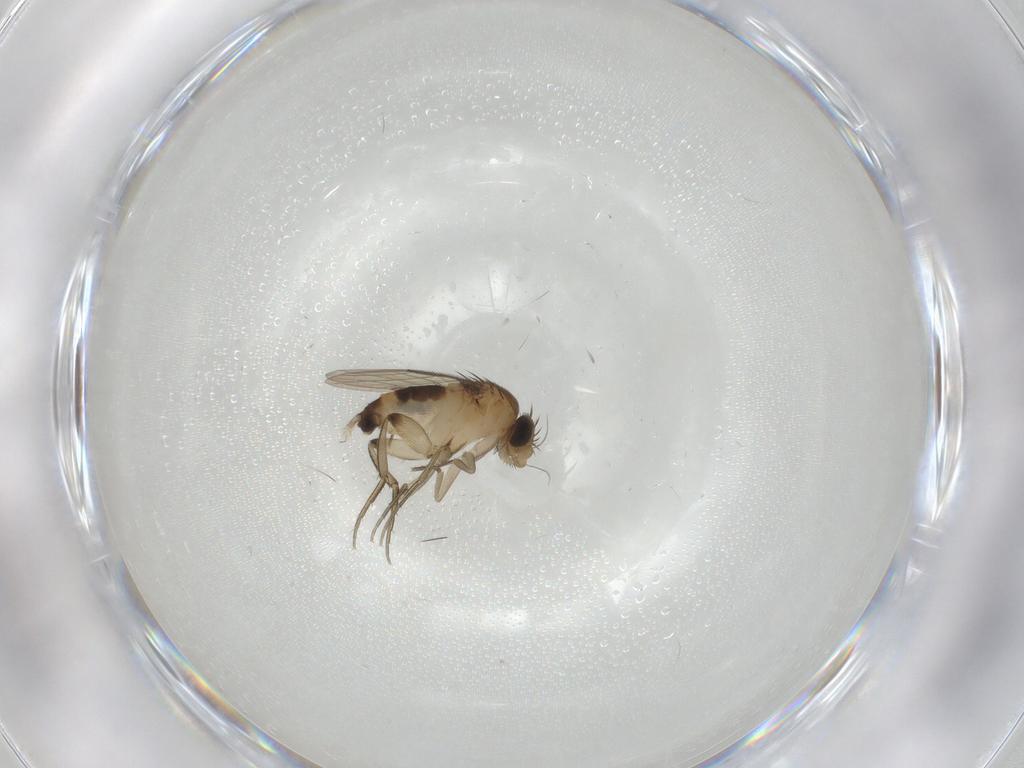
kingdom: Animalia
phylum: Arthropoda
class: Insecta
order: Diptera
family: Phoridae
